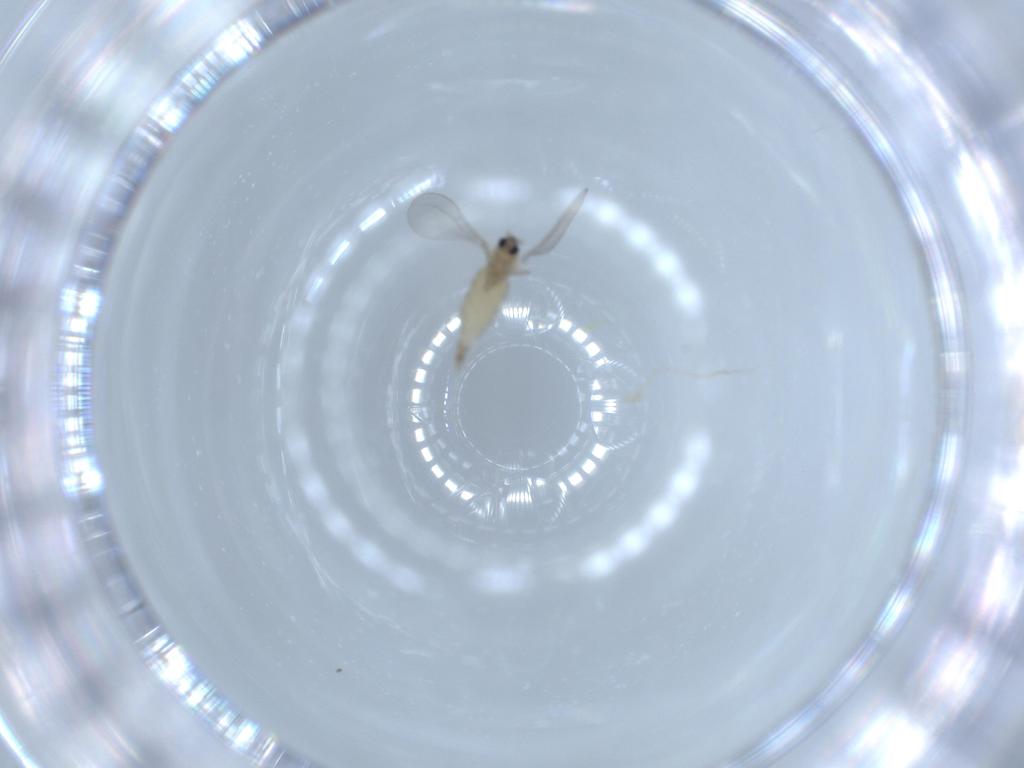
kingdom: Animalia
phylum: Arthropoda
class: Insecta
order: Diptera
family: Cecidomyiidae
